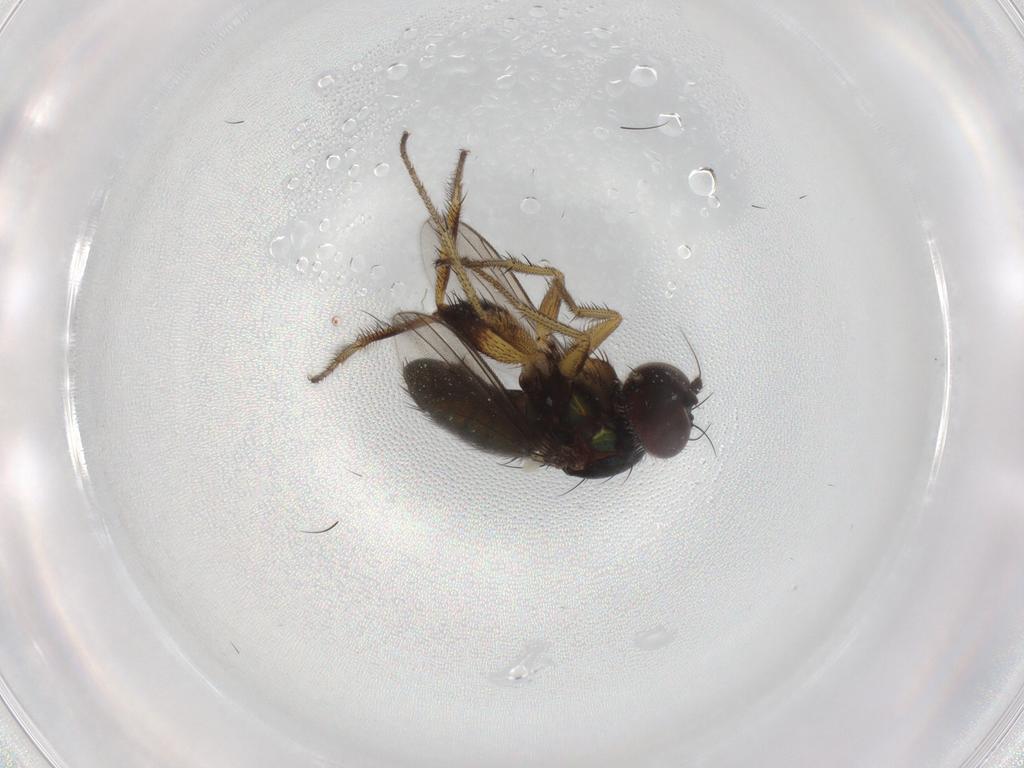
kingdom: Animalia
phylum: Arthropoda
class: Insecta
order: Diptera
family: Dolichopodidae
